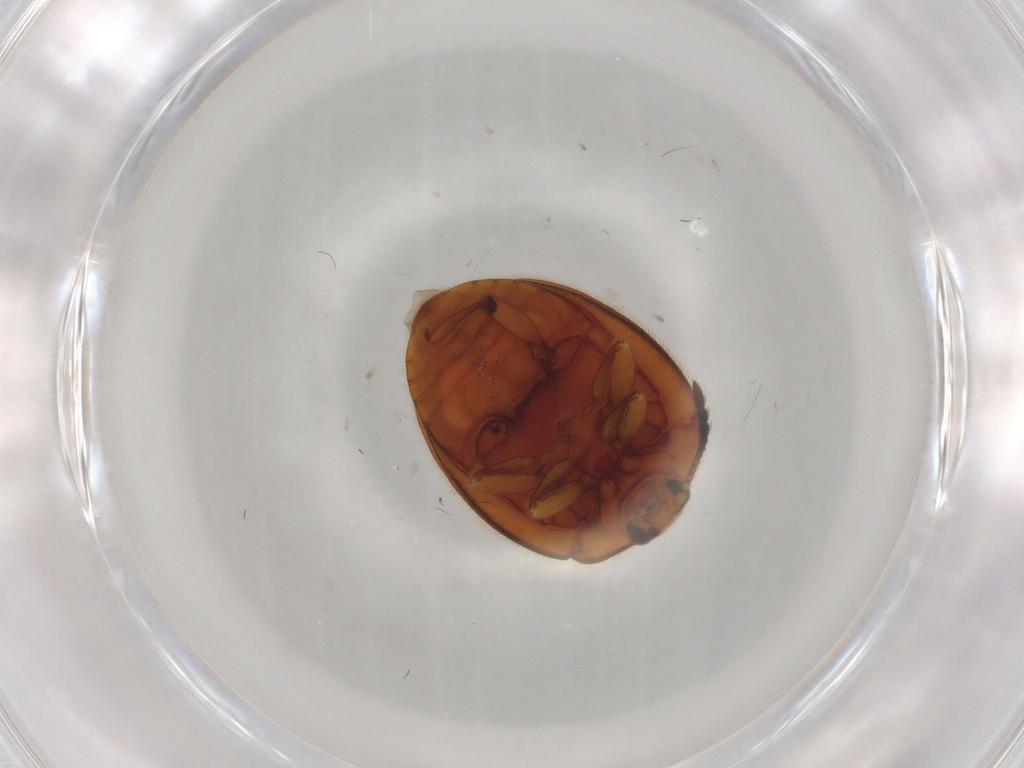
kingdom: Animalia
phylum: Arthropoda
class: Insecta
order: Coleoptera
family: Endomychidae
